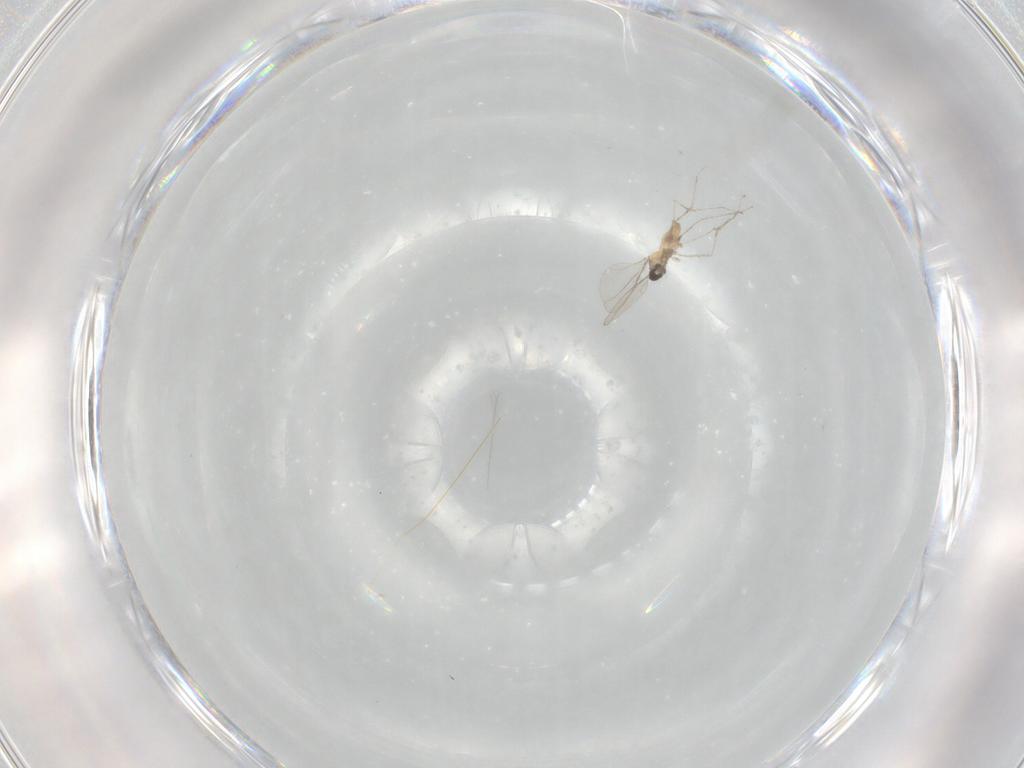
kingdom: Animalia
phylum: Arthropoda
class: Insecta
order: Diptera
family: Cecidomyiidae
